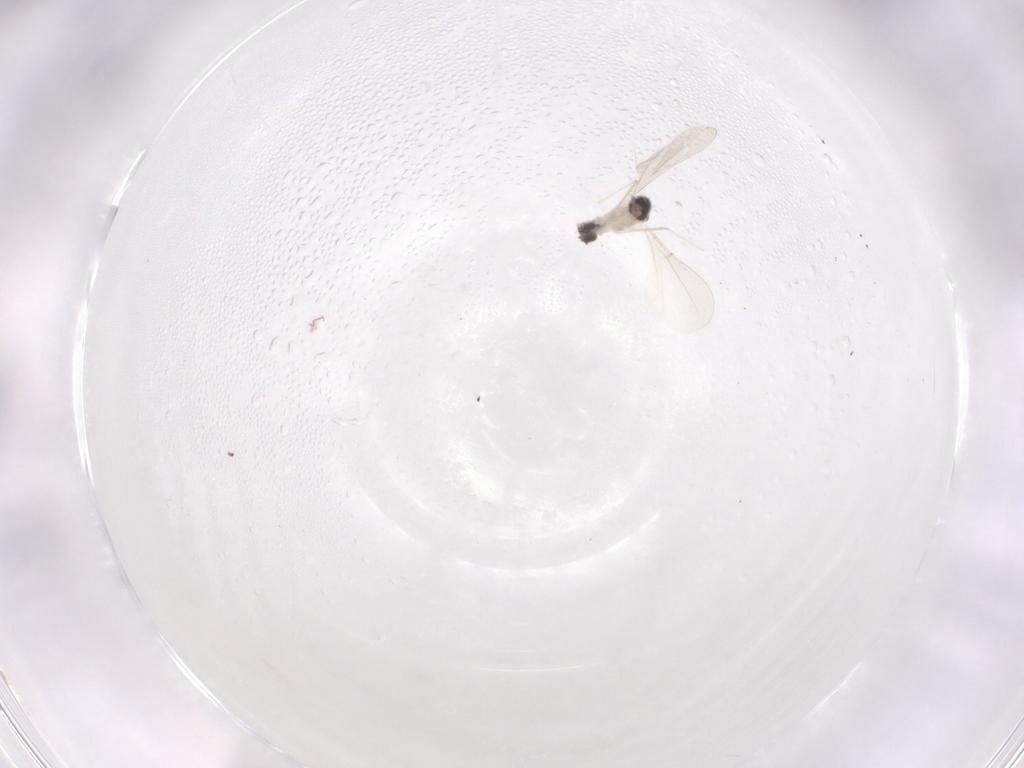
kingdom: Animalia
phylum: Arthropoda
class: Insecta
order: Diptera
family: Cecidomyiidae
